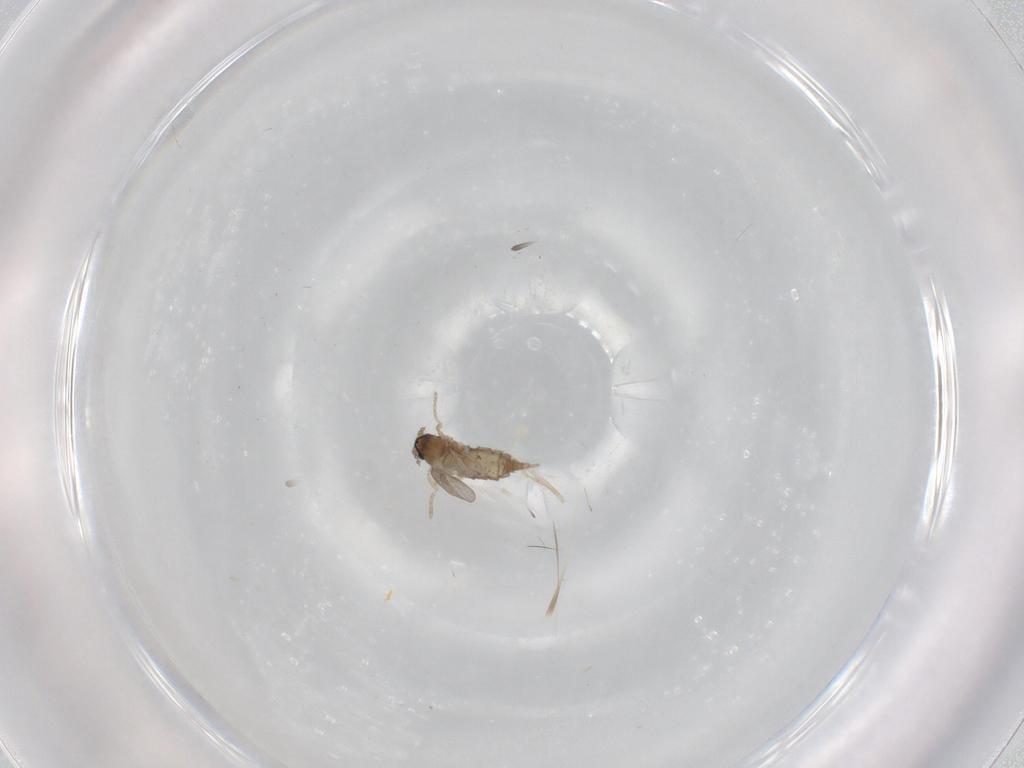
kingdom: Animalia
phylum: Arthropoda
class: Insecta
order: Diptera
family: Cecidomyiidae
